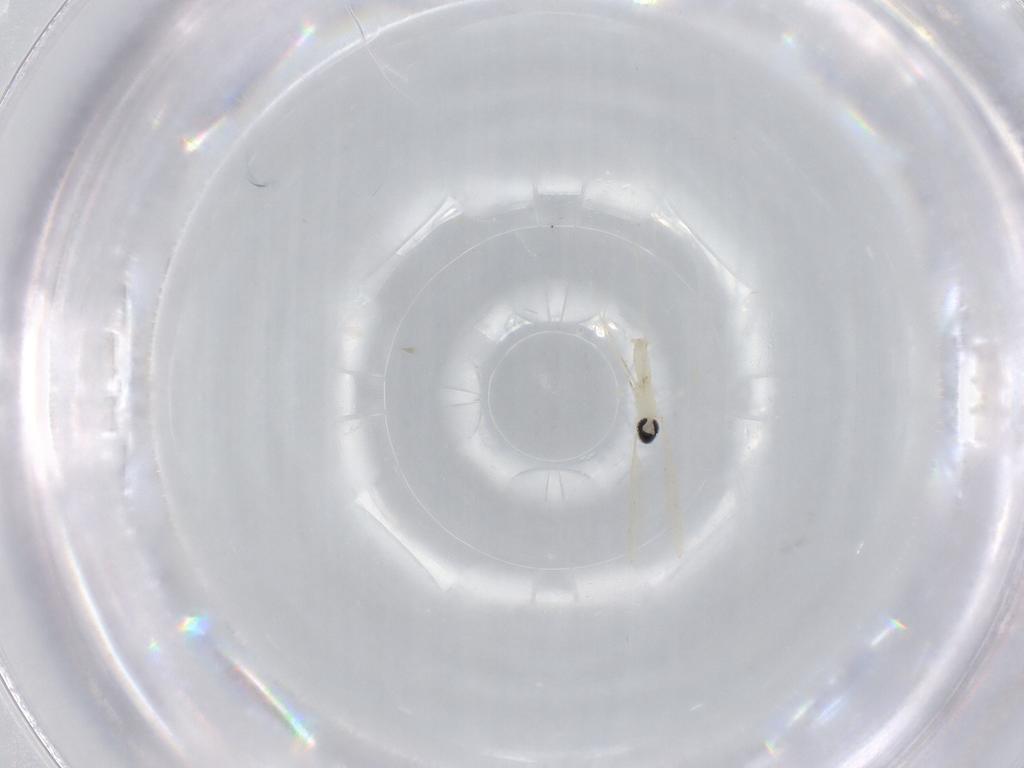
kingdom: Animalia
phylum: Arthropoda
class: Insecta
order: Diptera
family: Cecidomyiidae
